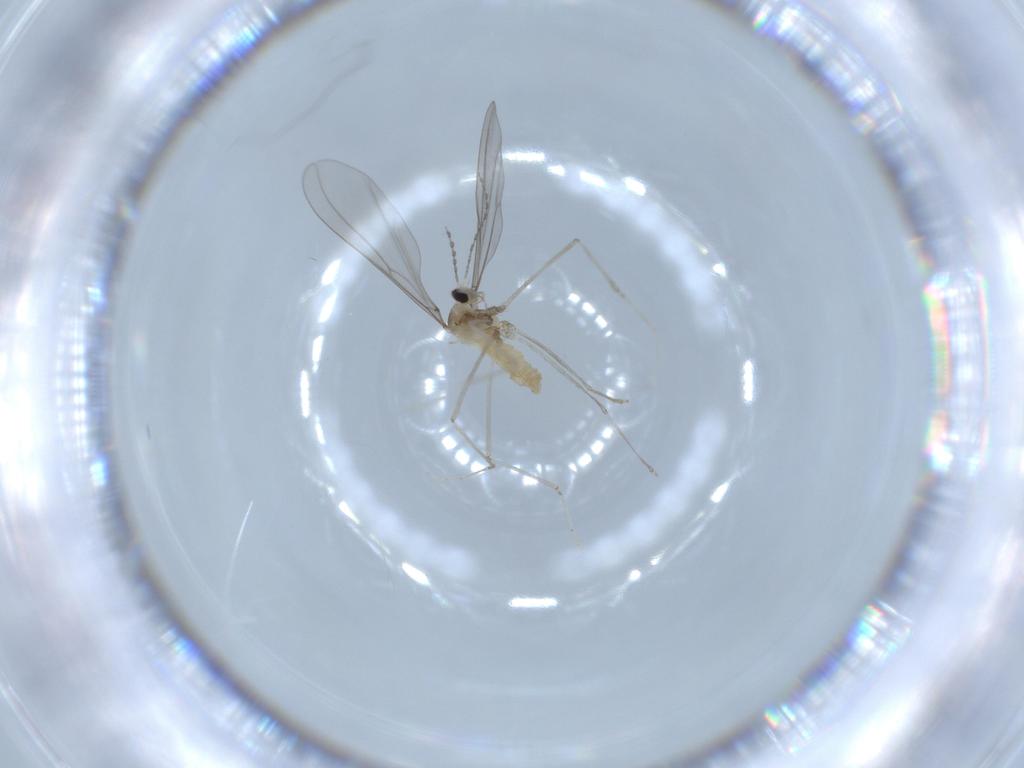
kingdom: Animalia
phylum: Arthropoda
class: Insecta
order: Diptera
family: Cecidomyiidae
